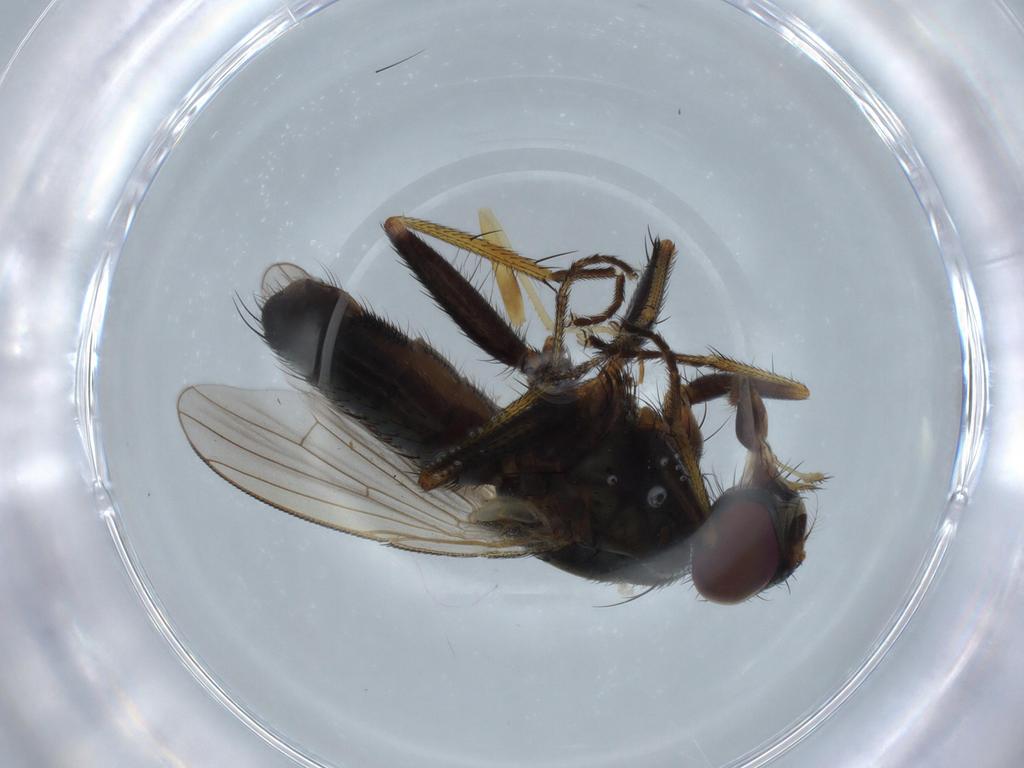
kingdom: Animalia
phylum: Arthropoda
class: Insecta
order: Diptera
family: Muscidae
